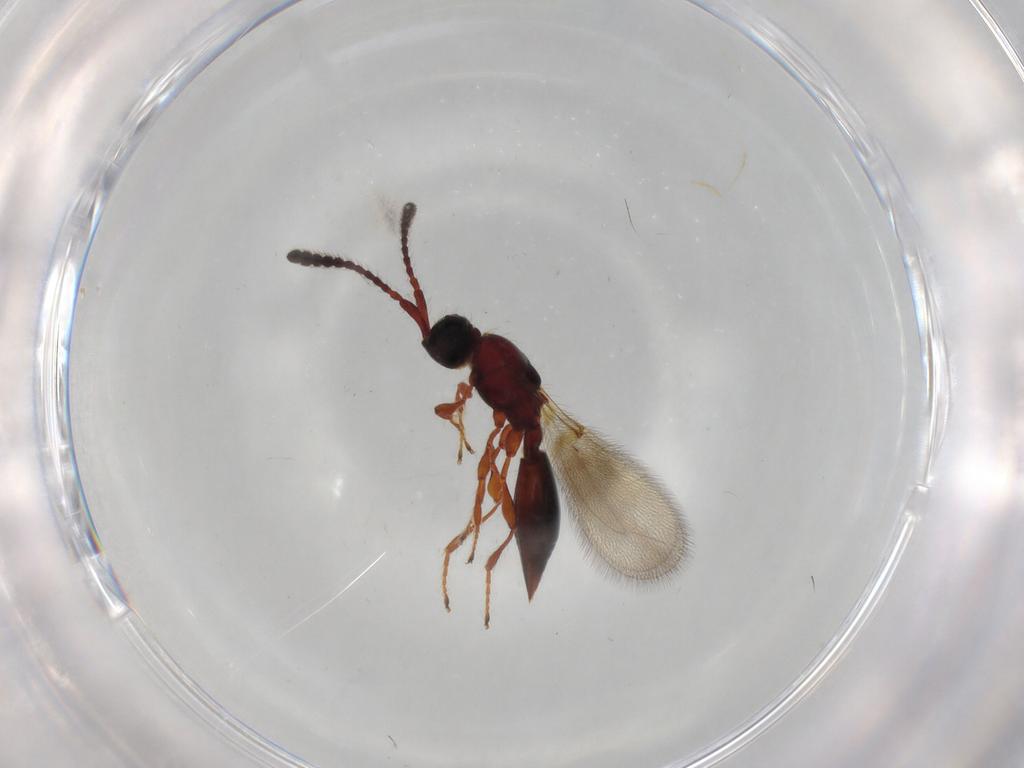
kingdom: Animalia
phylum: Arthropoda
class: Insecta
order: Hymenoptera
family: Diapriidae
